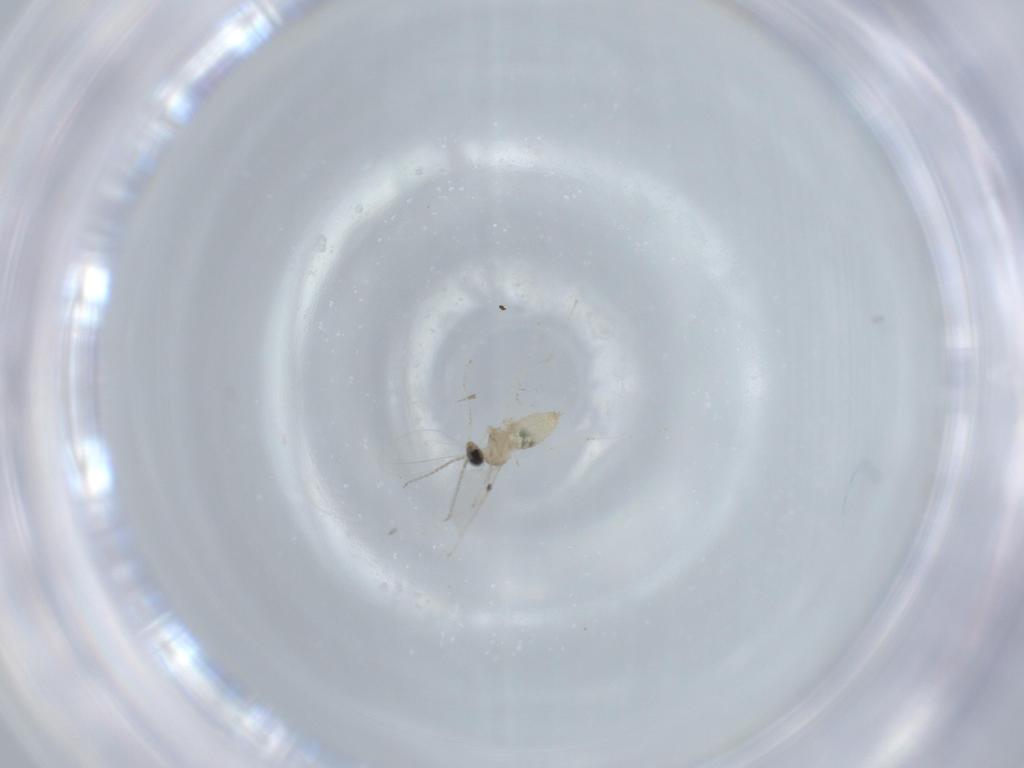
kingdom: Animalia
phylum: Arthropoda
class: Insecta
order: Diptera
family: Cecidomyiidae
